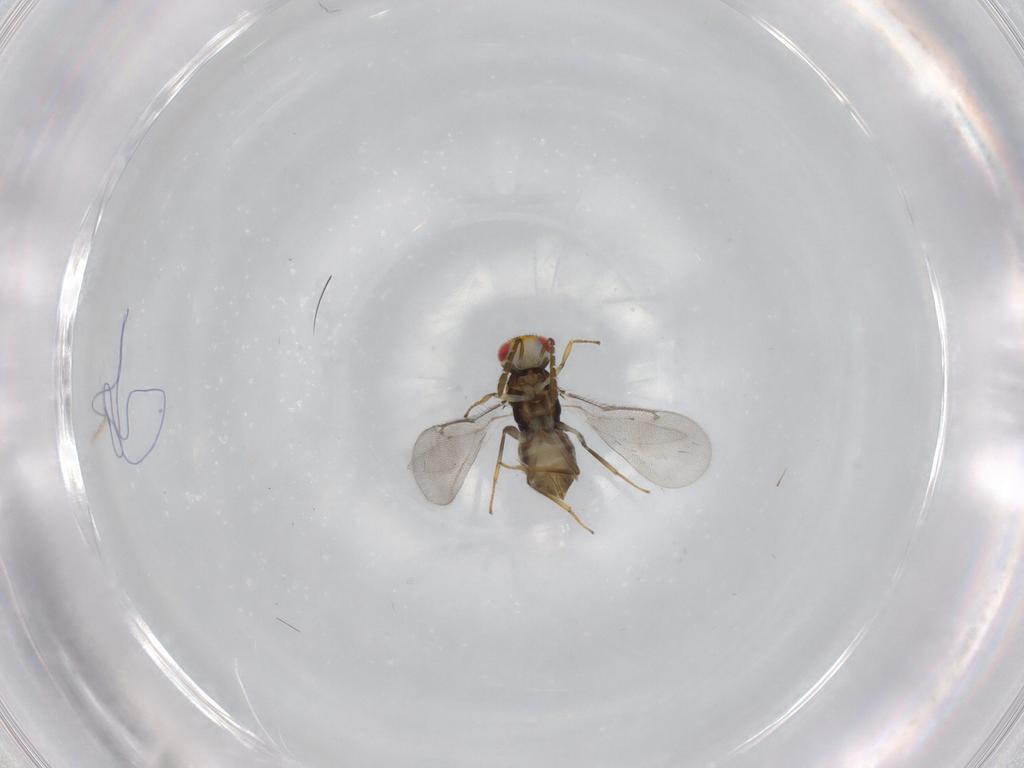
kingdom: Animalia
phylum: Arthropoda
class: Insecta
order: Hymenoptera
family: Aphelinidae
